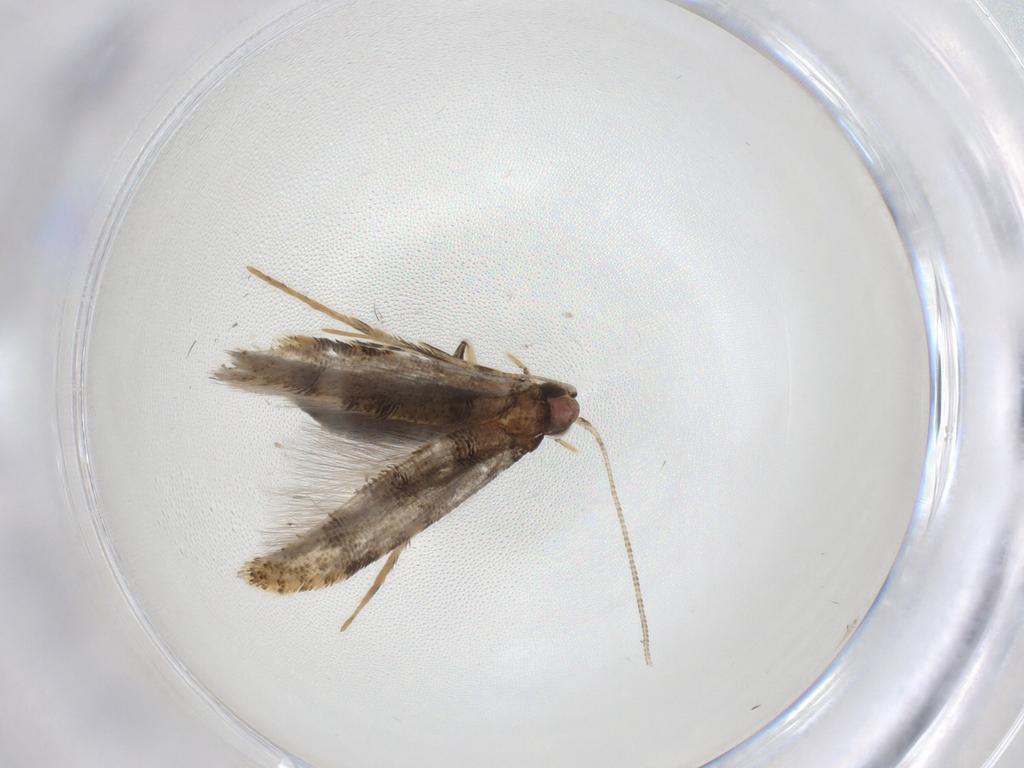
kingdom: Animalia
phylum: Arthropoda
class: Insecta
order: Lepidoptera
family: Tineidae
